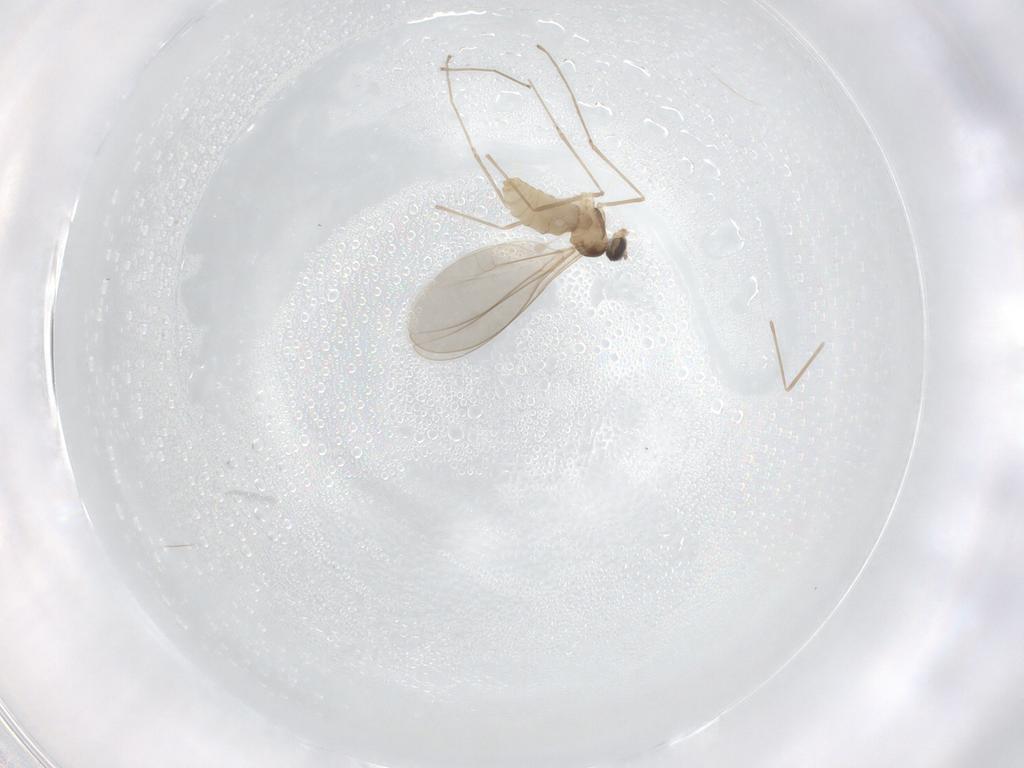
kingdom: Animalia
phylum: Arthropoda
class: Insecta
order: Diptera
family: Cecidomyiidae
